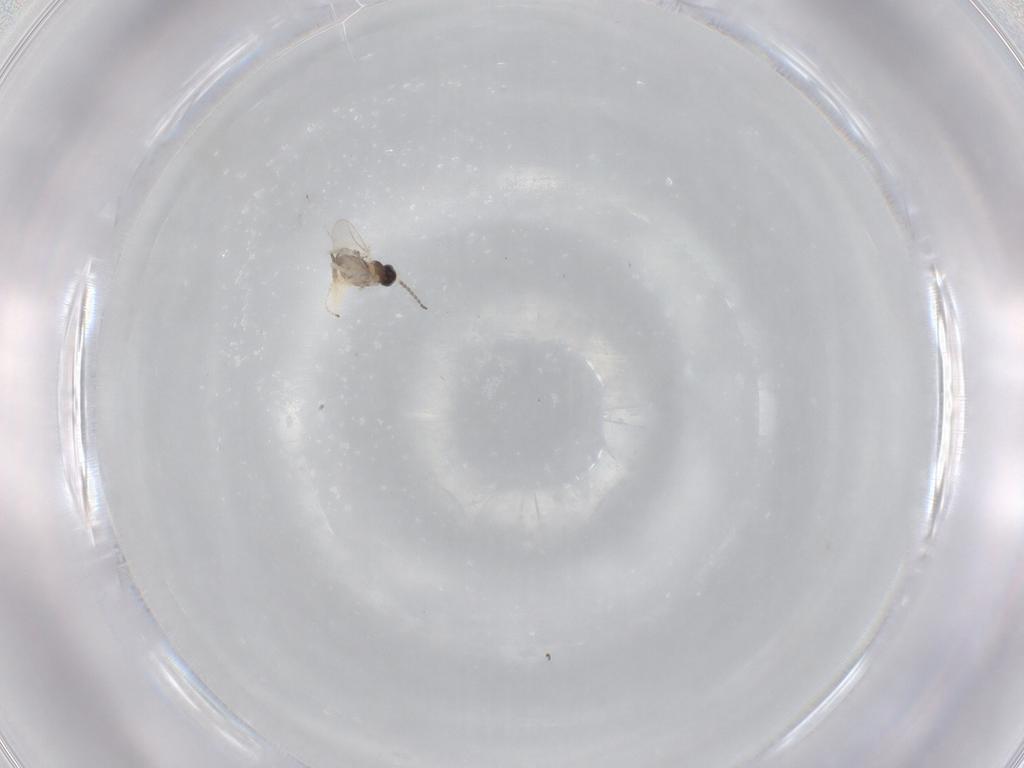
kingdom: Animalia
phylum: Arthropoda
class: Insecta
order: Diptera
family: Cecidomyiidae
